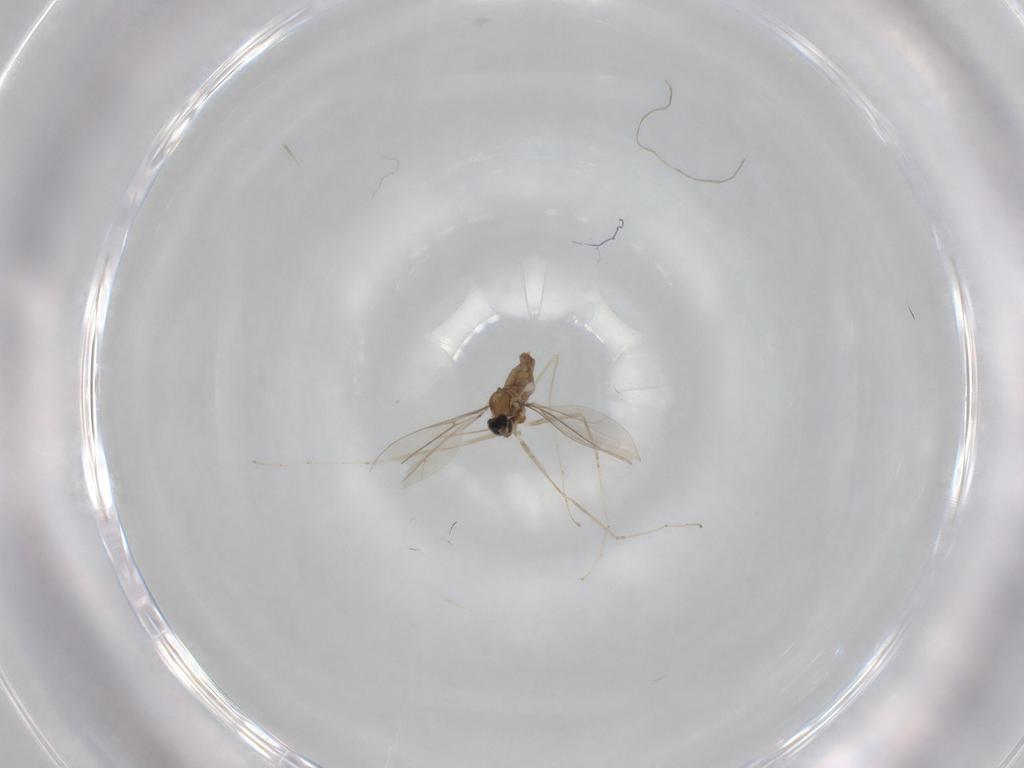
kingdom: Animalia
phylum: Arthropoda
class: Insecta
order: Diptera
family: Cecidomyiidae
